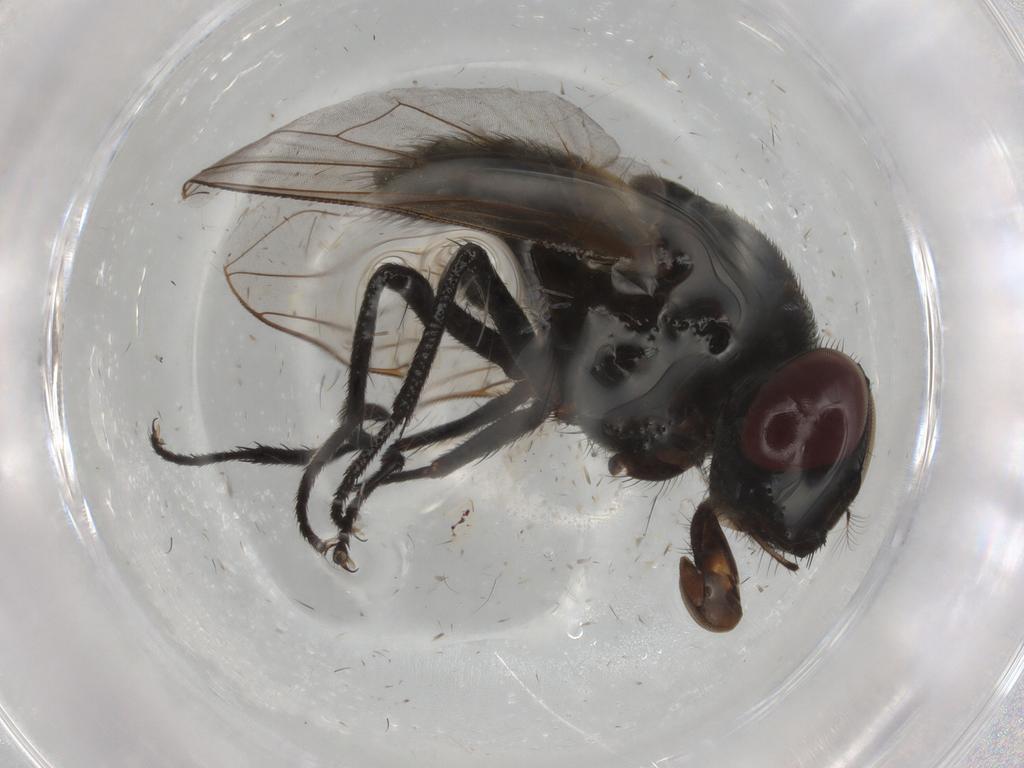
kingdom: Animalia
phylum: Arthropoda
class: Insecta
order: Diptera
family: Muscidae
